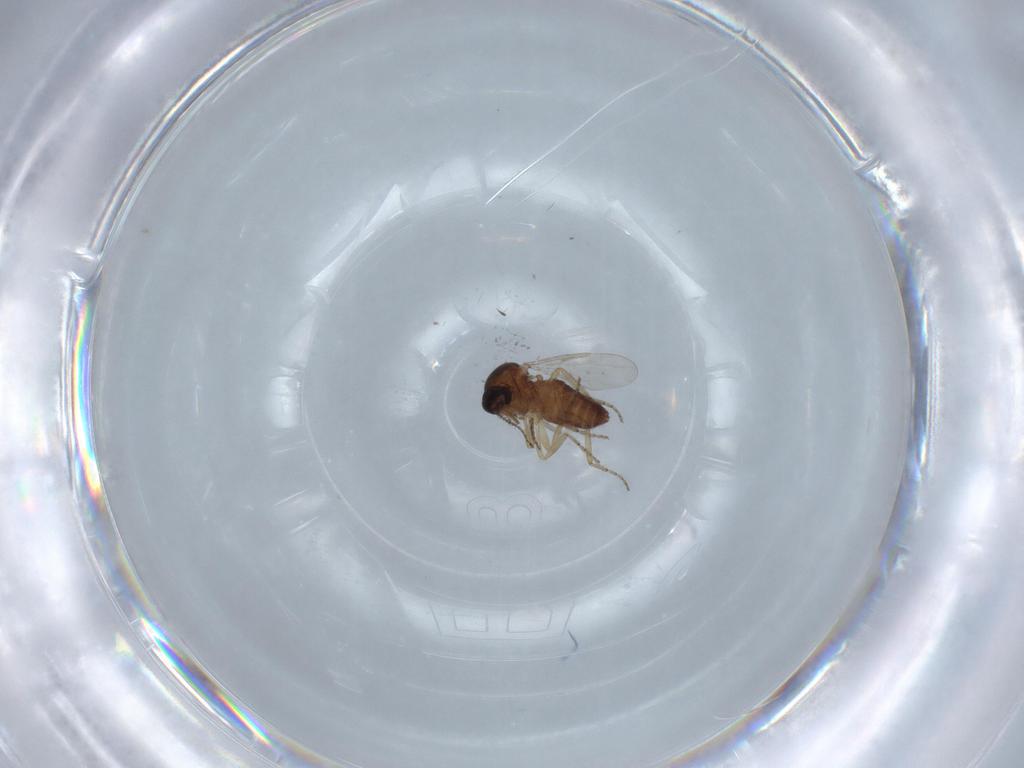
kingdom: Animalia
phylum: Arthropoda
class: Insecta
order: Diptera
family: Ceratopogonidae
